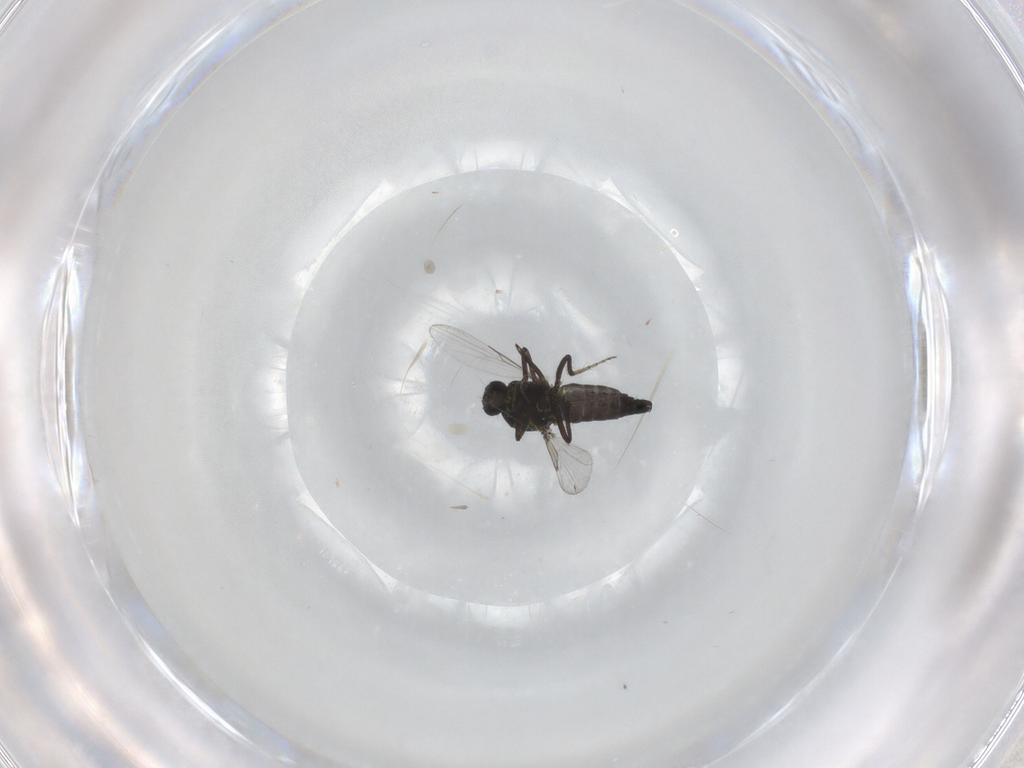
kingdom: Animalia
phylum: Arthropoda
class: Insecta
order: Diptera
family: Ceratopogonidae
